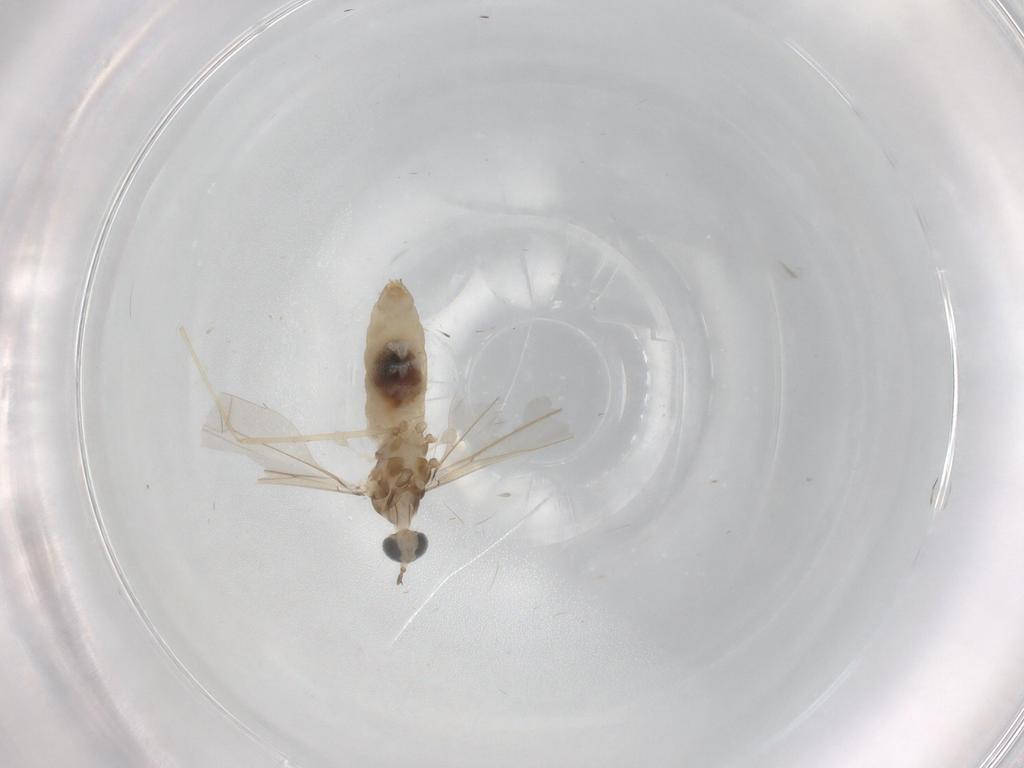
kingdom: Animalia
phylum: Arthropoda
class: Insecta
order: Diptera
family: Cecidomyiidae
